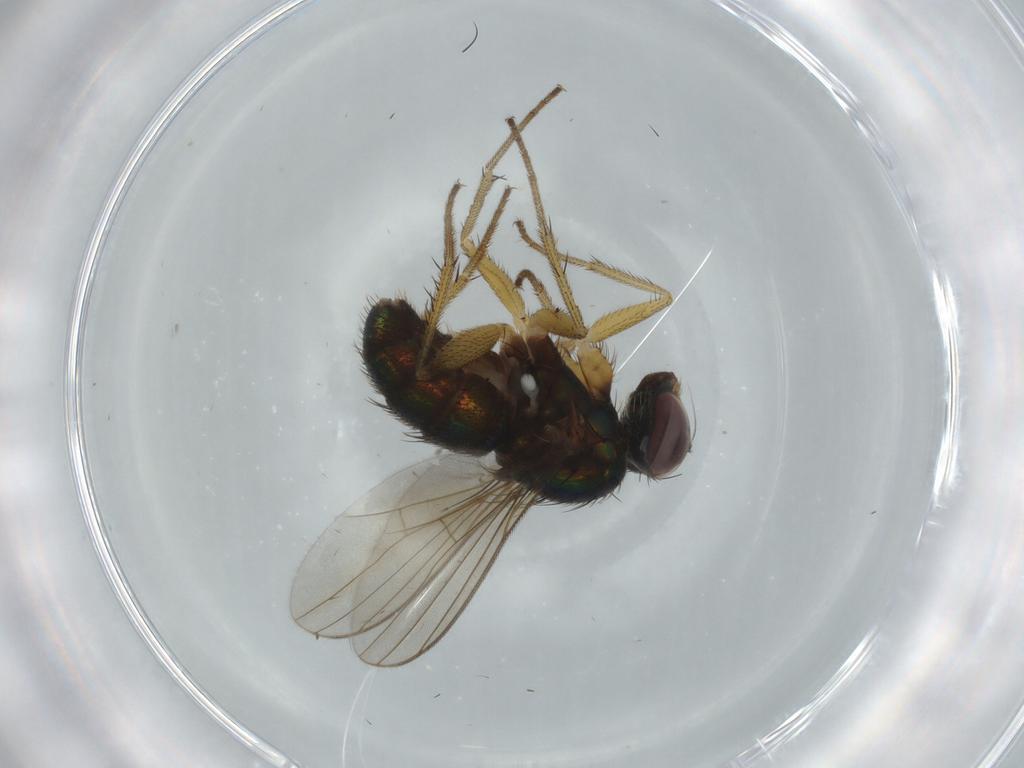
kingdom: Animalia
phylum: Arthropoda
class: Insecta
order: Diptera
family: Dolichopodidae
